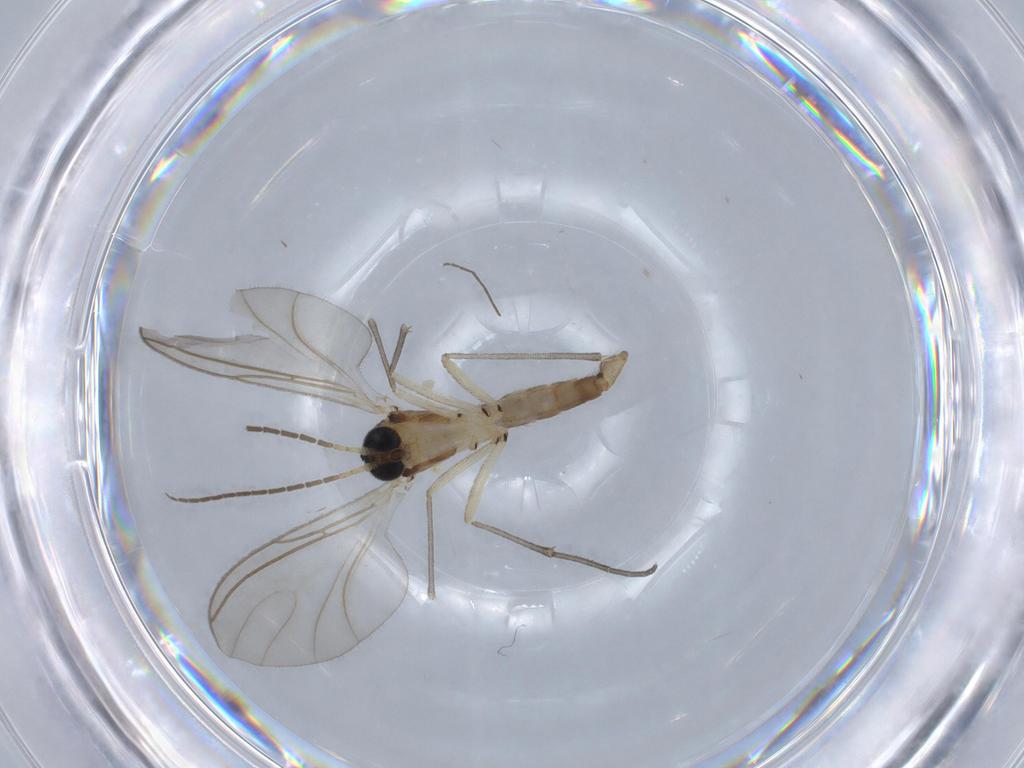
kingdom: Animalia
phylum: Arthropoda
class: Insecta
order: Diptera
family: Sciaridae
